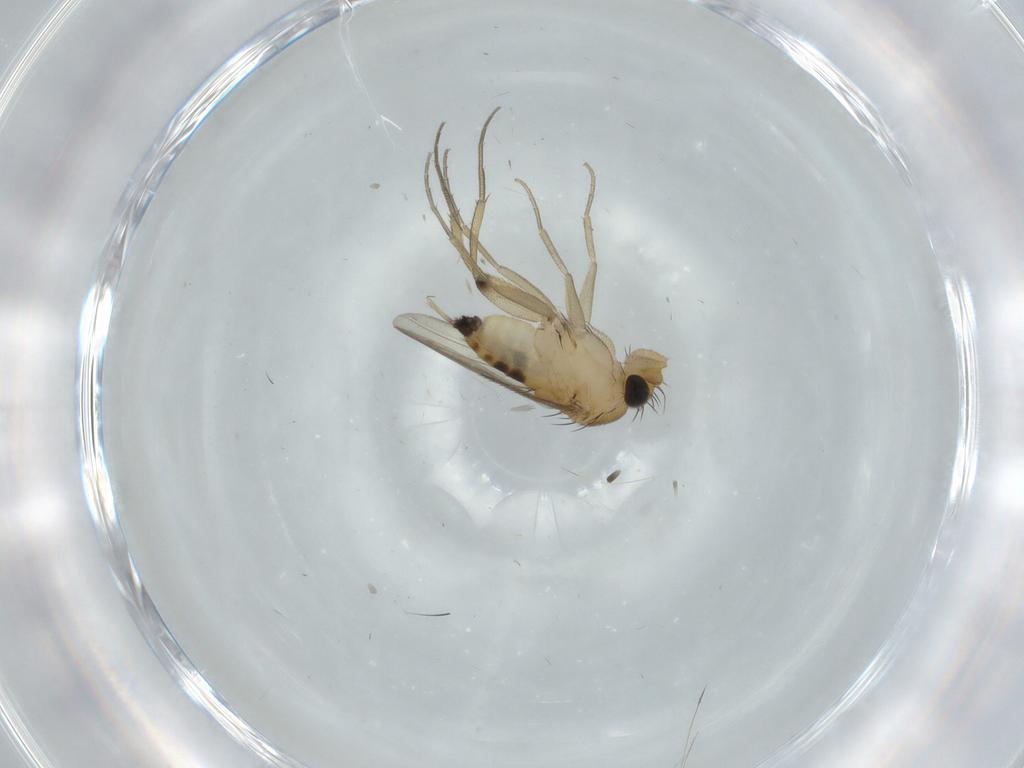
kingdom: Animalia
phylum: Arthropoda
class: Insecta
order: Diptera
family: Phoridae
